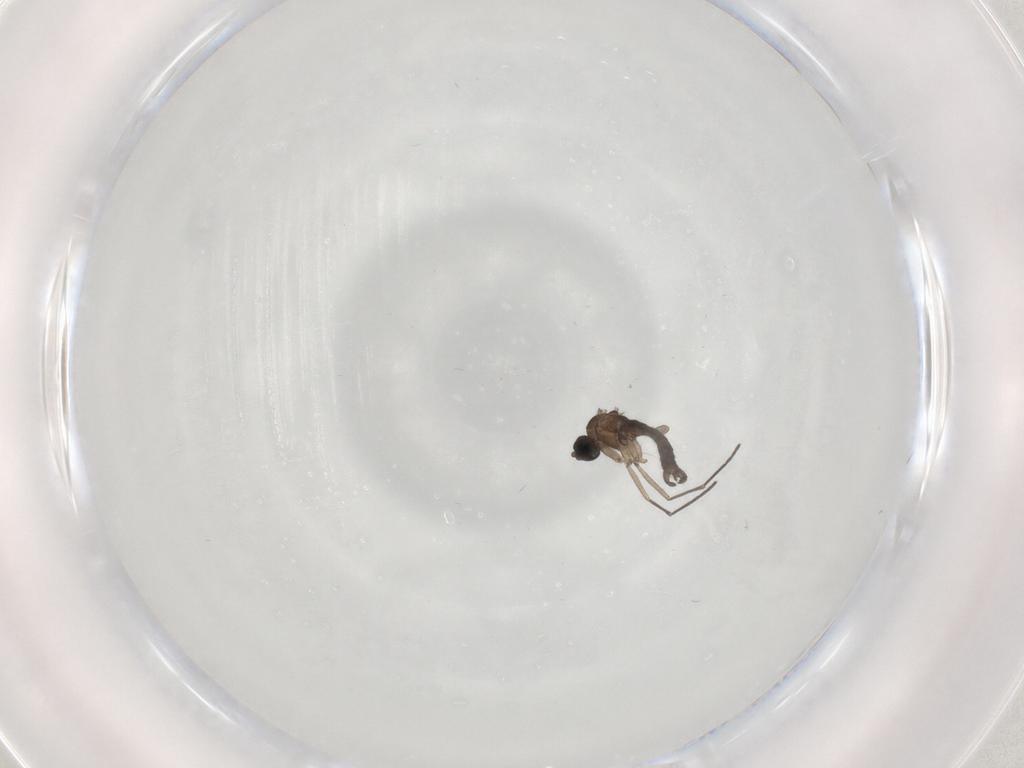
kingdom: Animalia
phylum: Arthropoda
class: Insecta
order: Diptera
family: Sciaridae
